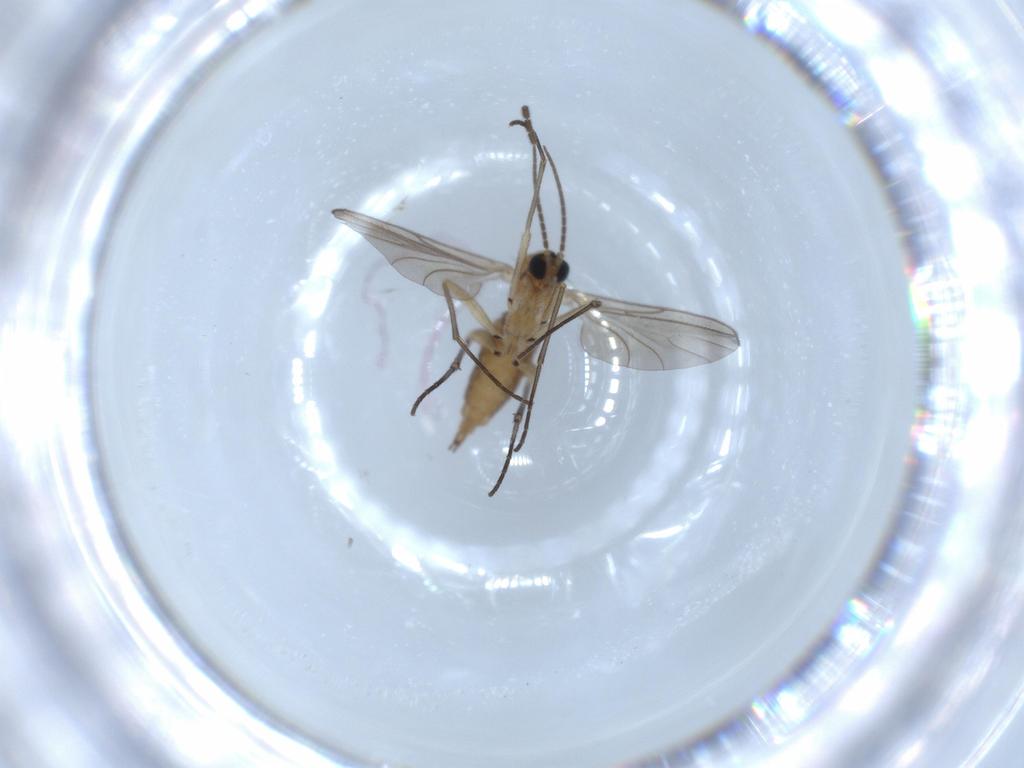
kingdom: Animalia
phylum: Arthropoda
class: Insecta
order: Diptera
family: Sciaridae
